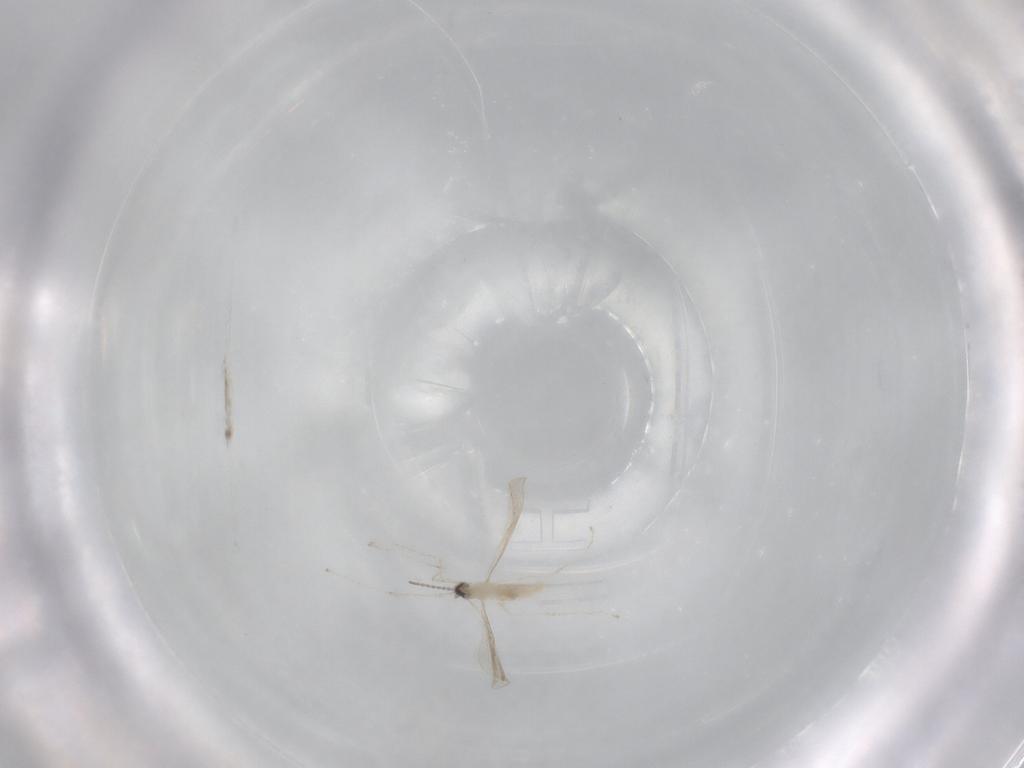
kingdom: Animalia
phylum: Arthropoda
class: Insecta
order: Diptera
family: Cecidomyiidae
